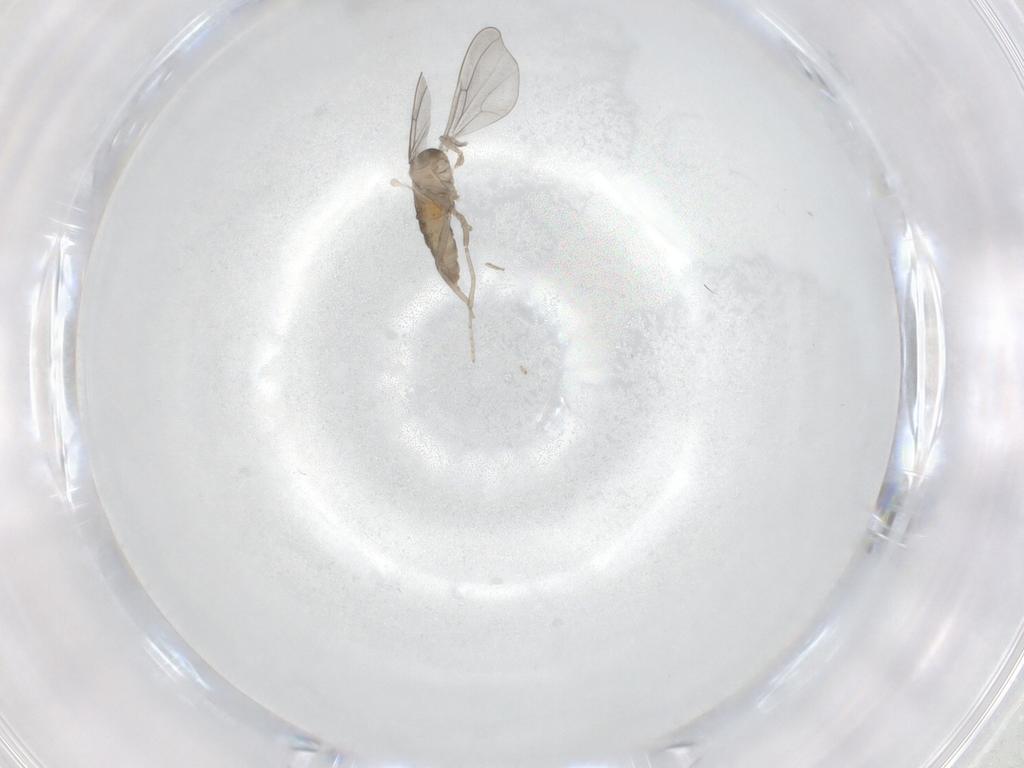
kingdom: Animalia
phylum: Arthropoda
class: Insecta
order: Diptera
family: Cecidomyiidae
